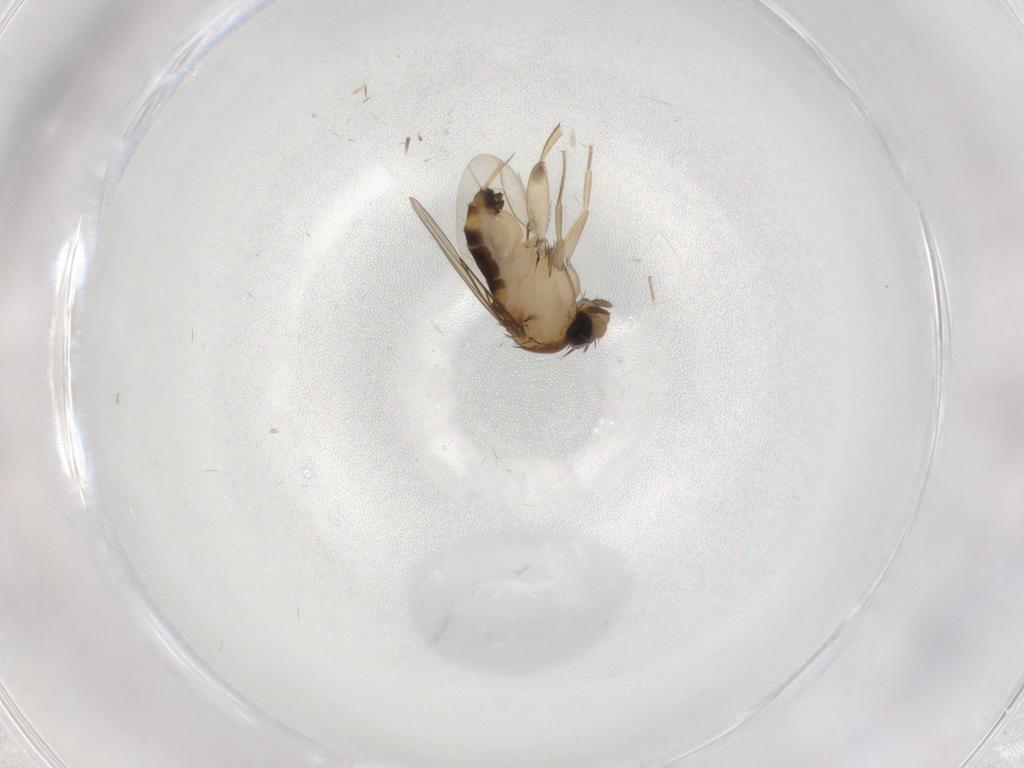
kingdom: Animalia
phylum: Arthropoda
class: Insecta
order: Diptera
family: Phoridae
